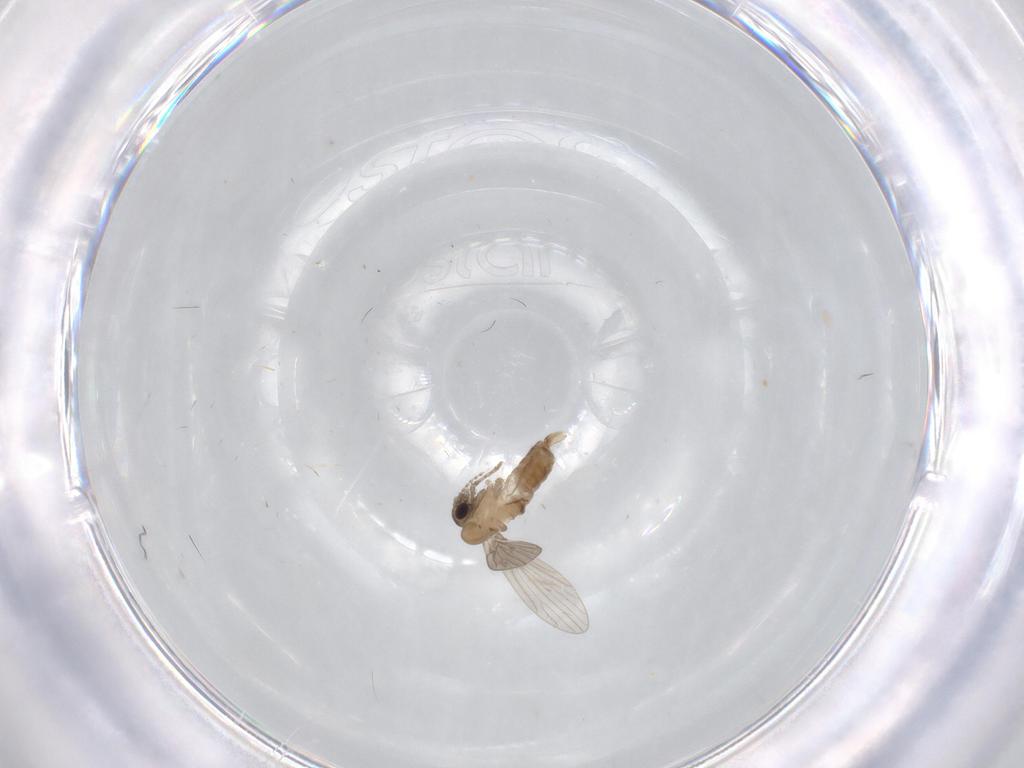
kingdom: Animalia
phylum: Arthropoda
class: Insecta
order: Diptera
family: Psychodidae
